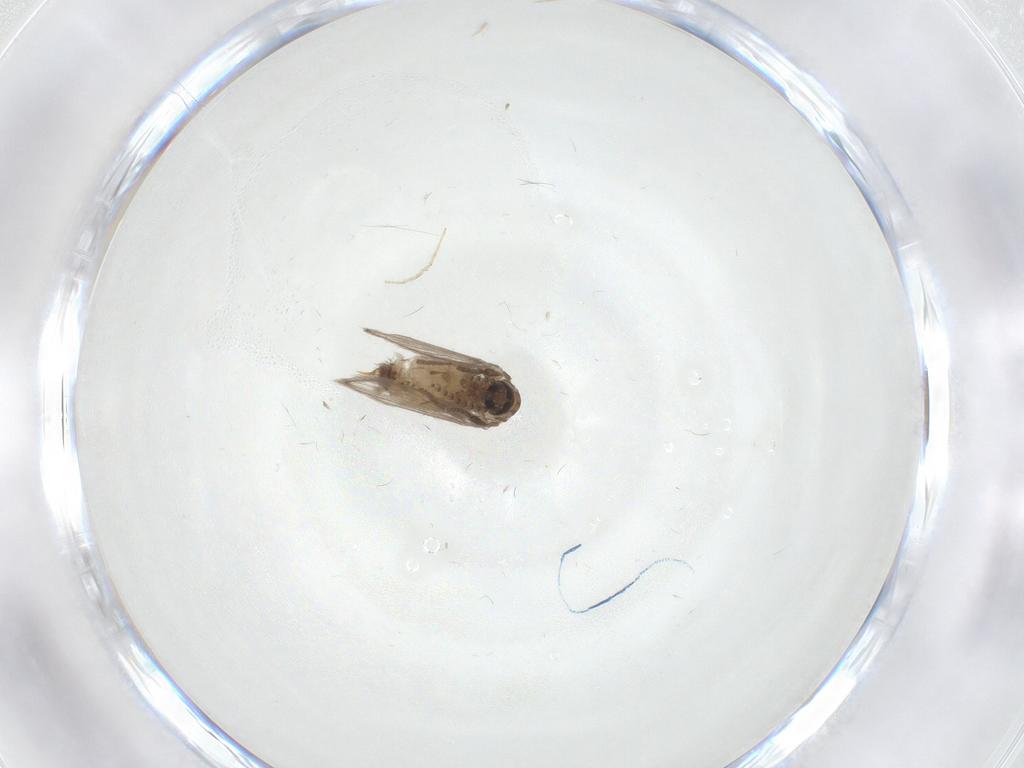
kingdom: Animalia
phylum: Arthropoda
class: Insecta
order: Diptera
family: Psychodidae
